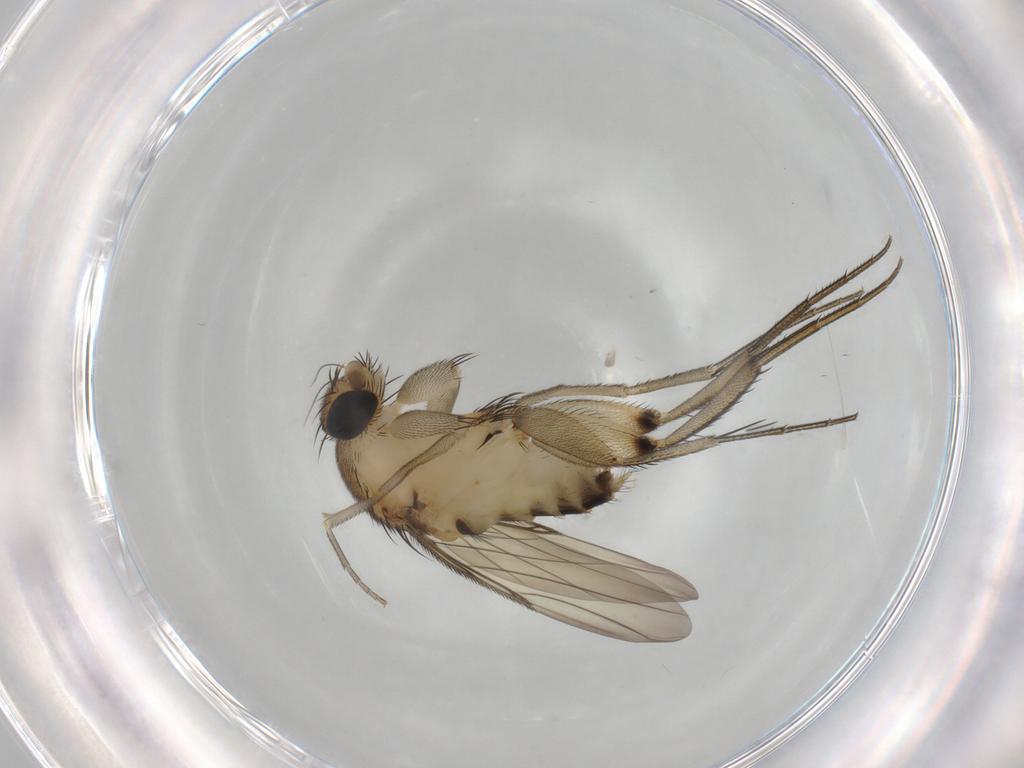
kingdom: Animalia
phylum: Arthropoda
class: Insecta
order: Diptera
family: Phoridae
